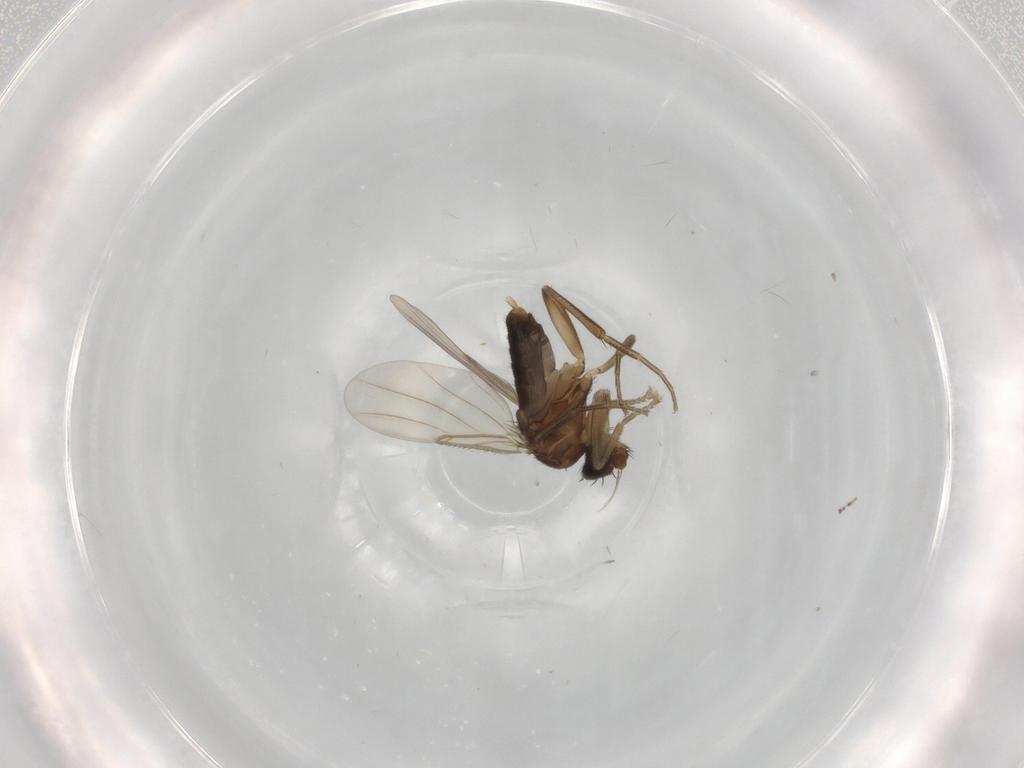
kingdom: Animalia
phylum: Arthropoda
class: Insecta
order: Diptera
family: Phoridae
